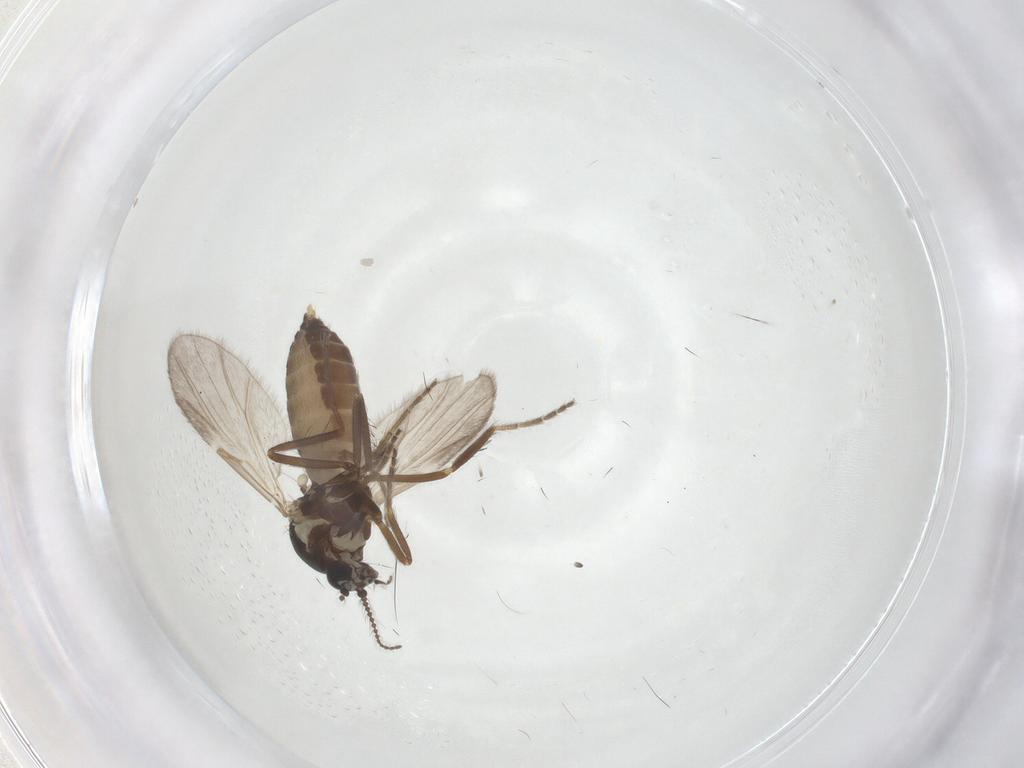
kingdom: Animalia
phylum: Arthropoda
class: Insecta
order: Diptera
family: Ceratopogonidae
